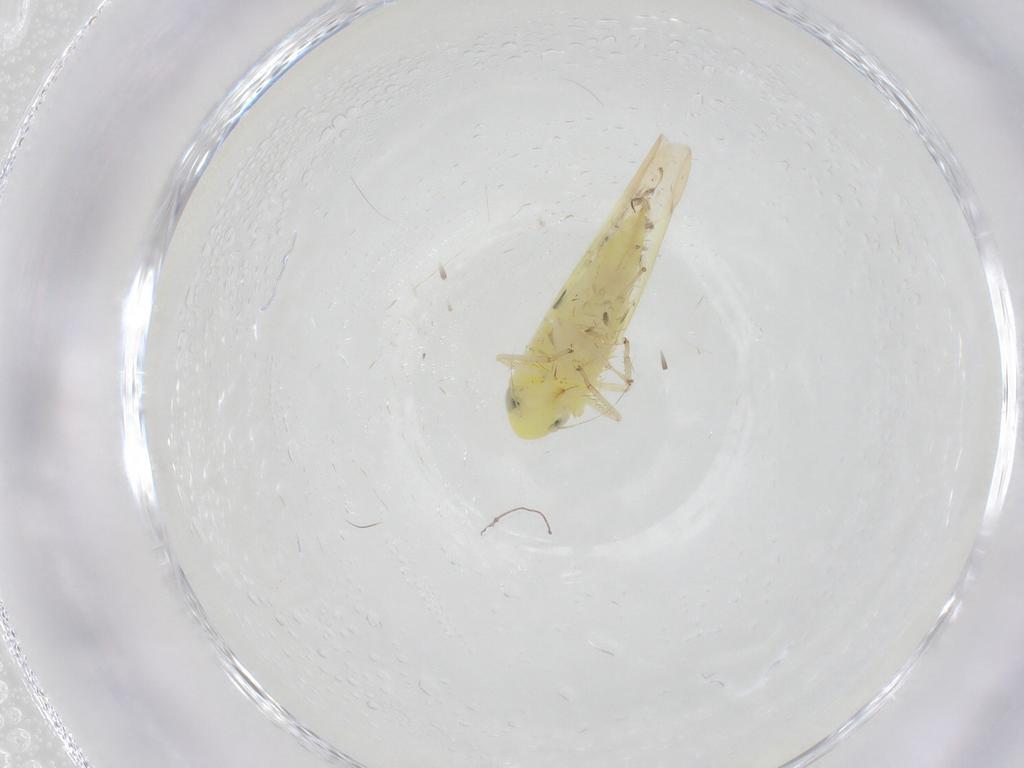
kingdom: Animalia
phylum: Arthropoda
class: Insecta
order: Hemiptera
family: Cicadellidae
